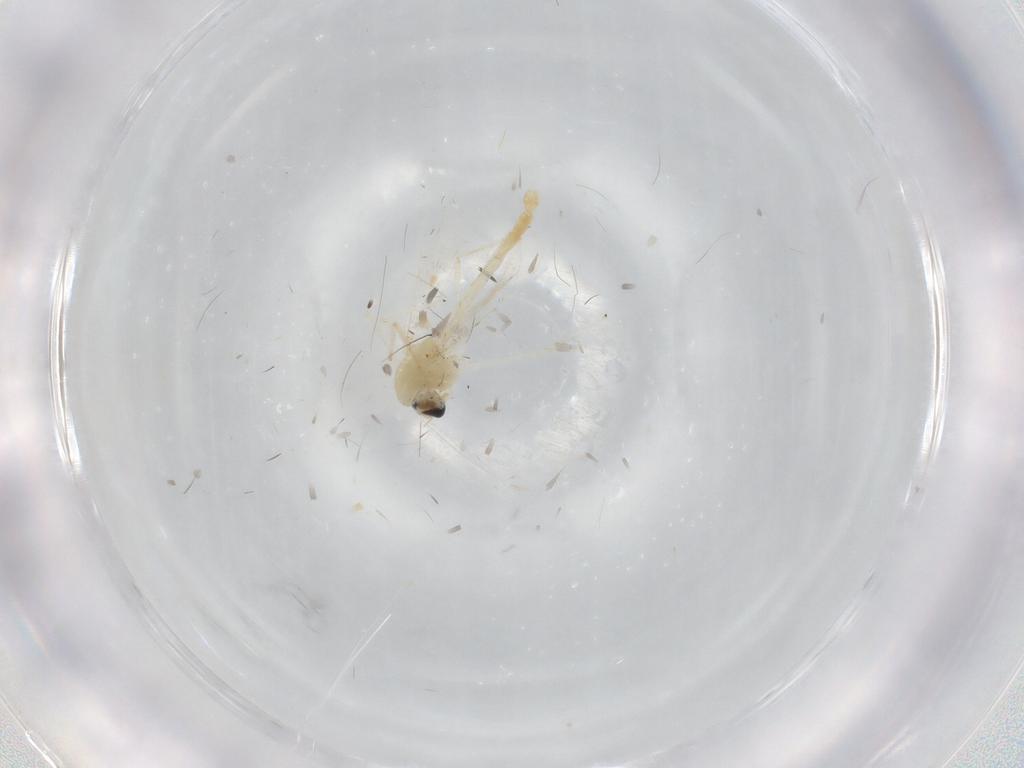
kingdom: Animalia
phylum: Arthropoda
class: Insecta
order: Diptera
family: Chironomidae
